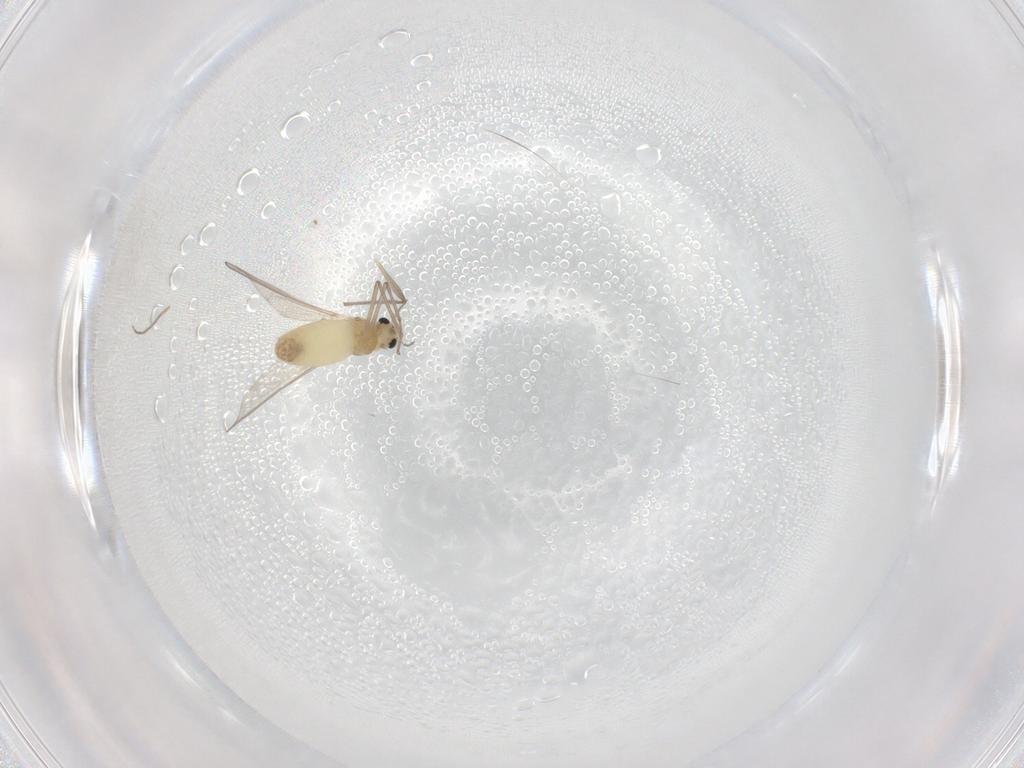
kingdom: Animalia
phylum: Arthropoda
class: Insecta
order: Diptera
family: Chironomidae
